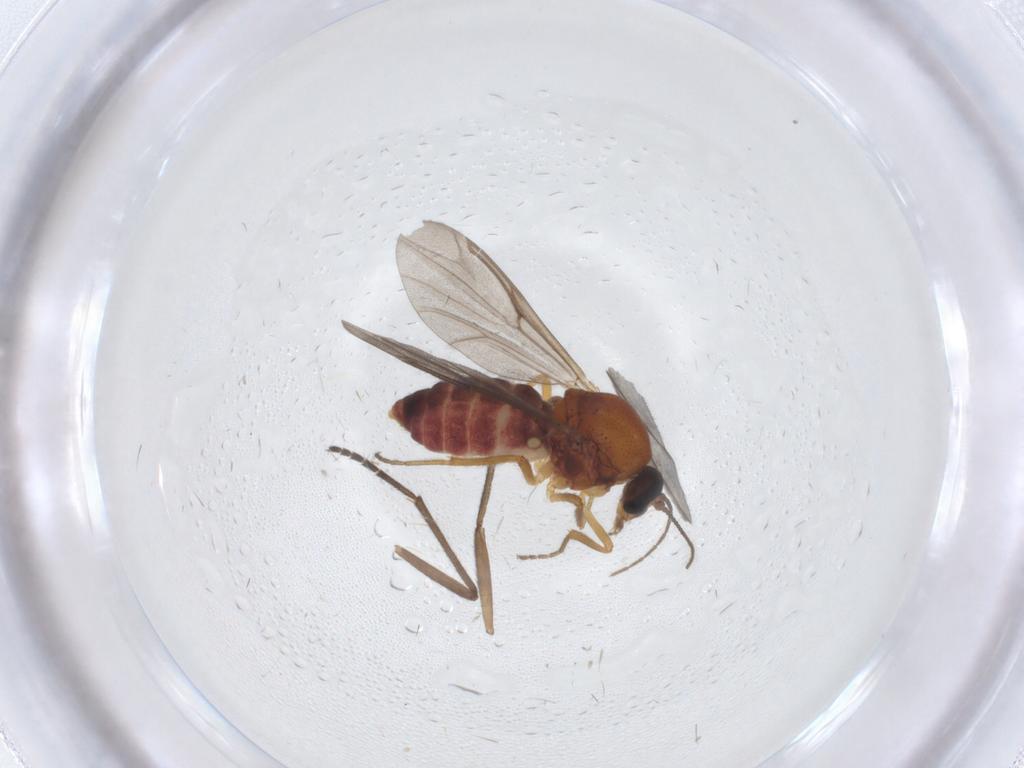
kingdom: Animalia
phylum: Arthropoda
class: Insecta
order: Diptera
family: Ceratopogonidae
